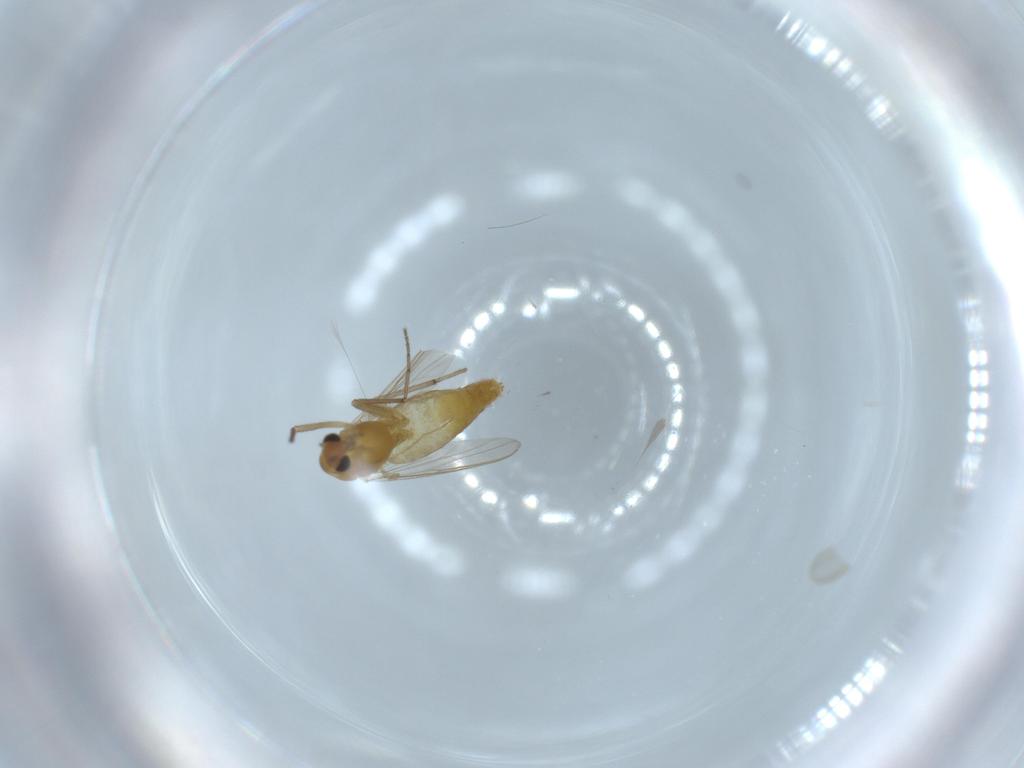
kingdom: Animalia
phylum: Arthropoda
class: Insecta
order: Diptera
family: Chironomidae
